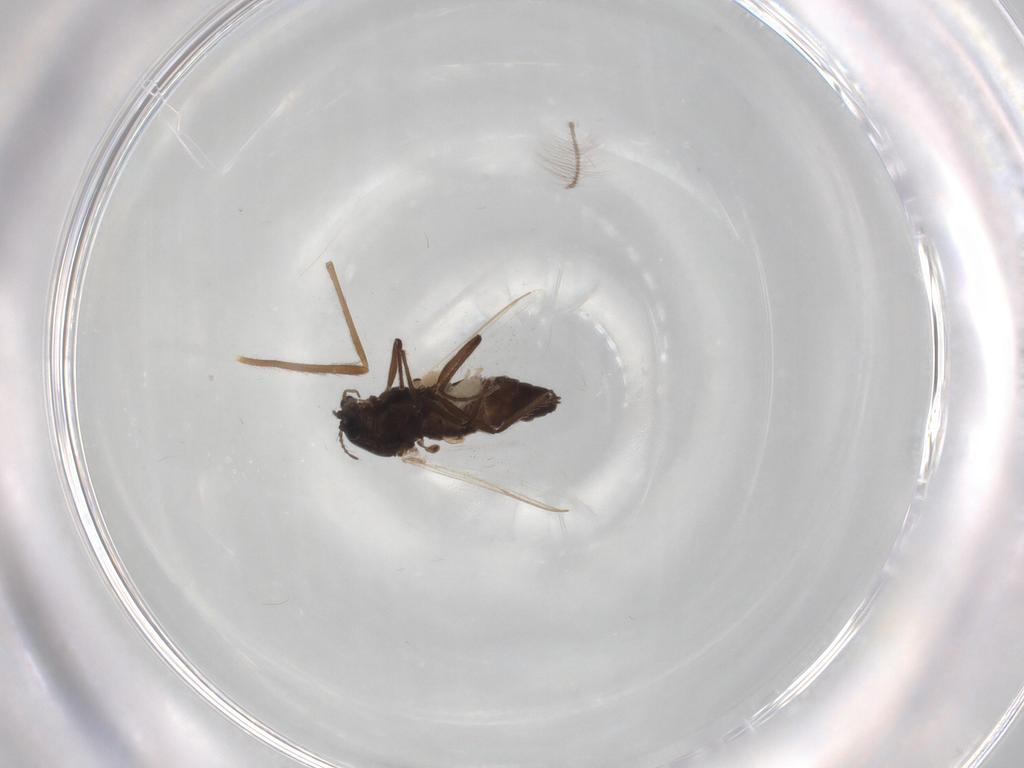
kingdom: Animalia
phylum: Arthropoda
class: Insecta
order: Diptera
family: Chironomidae
